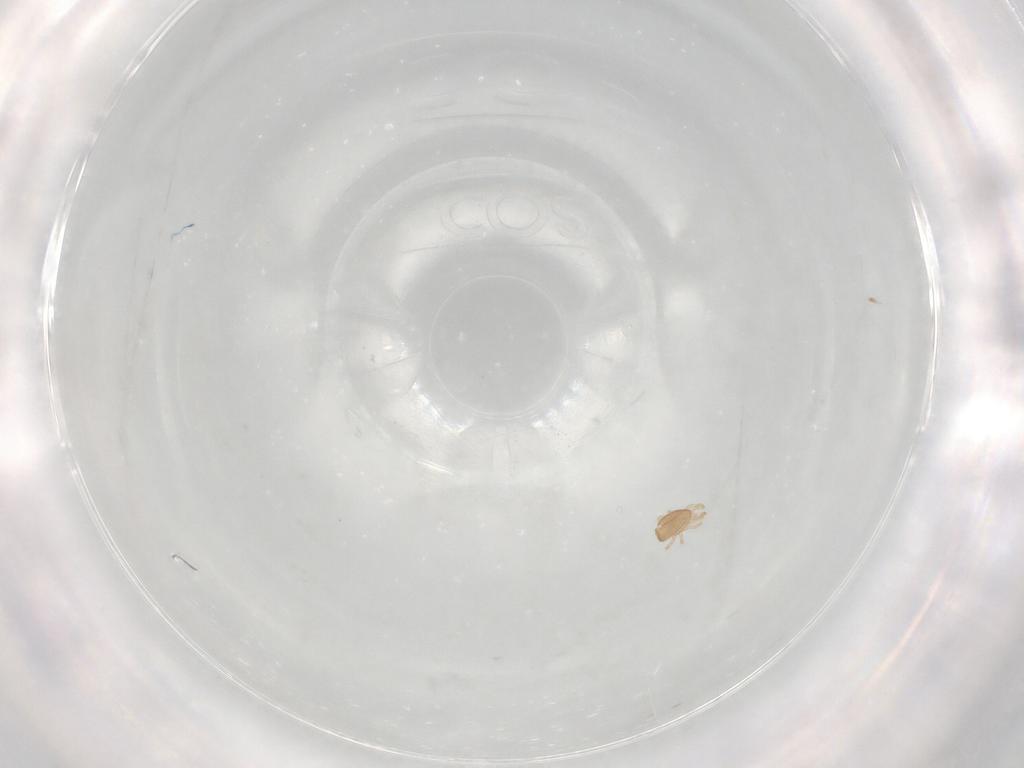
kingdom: Animalia
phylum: Arthropoda
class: Arachnida
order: Mesostigmata
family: Ascidae
